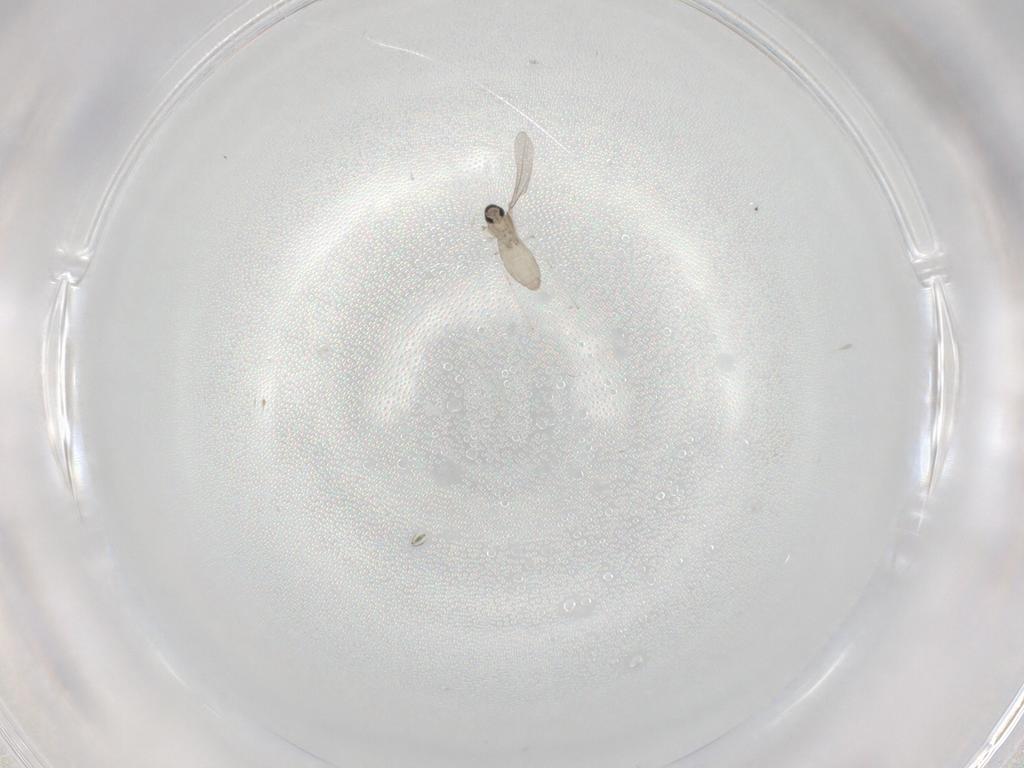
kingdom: Animalia
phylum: Arthropoda
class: Insecta
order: Diptera
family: Cecidomyiidae
